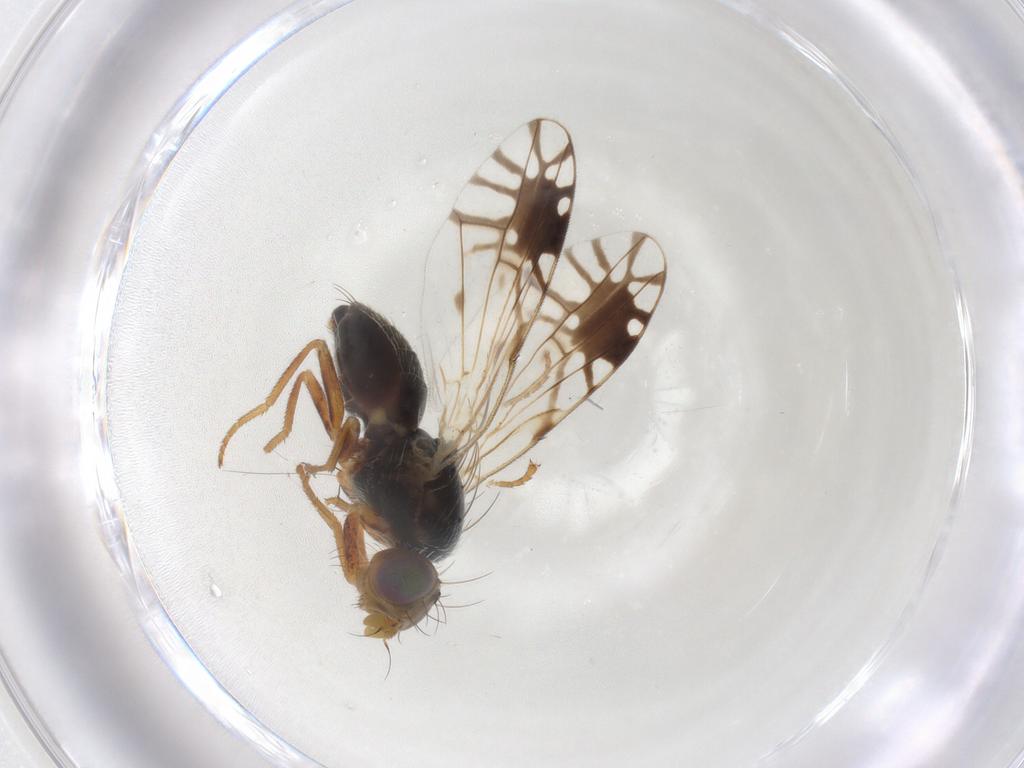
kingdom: Animalia
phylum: Arthropoda
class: Insecta
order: Diptera
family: Tephritidae
